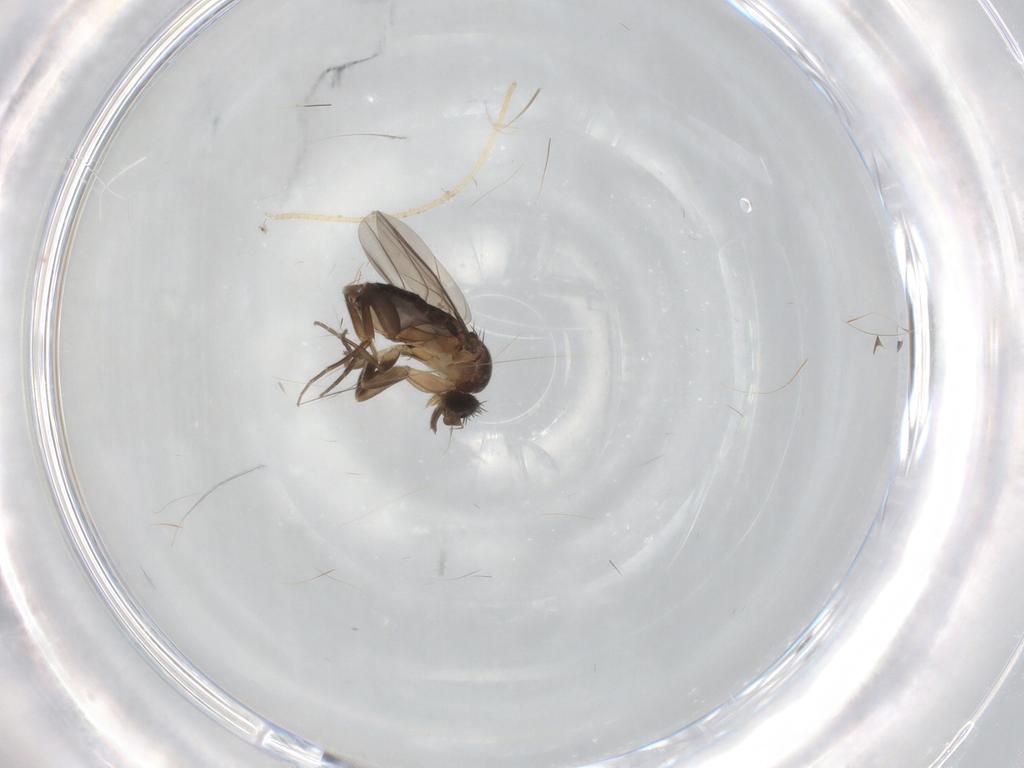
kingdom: Animalia
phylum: Arthropoda
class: Insecta
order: Diptera
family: Phoridae
